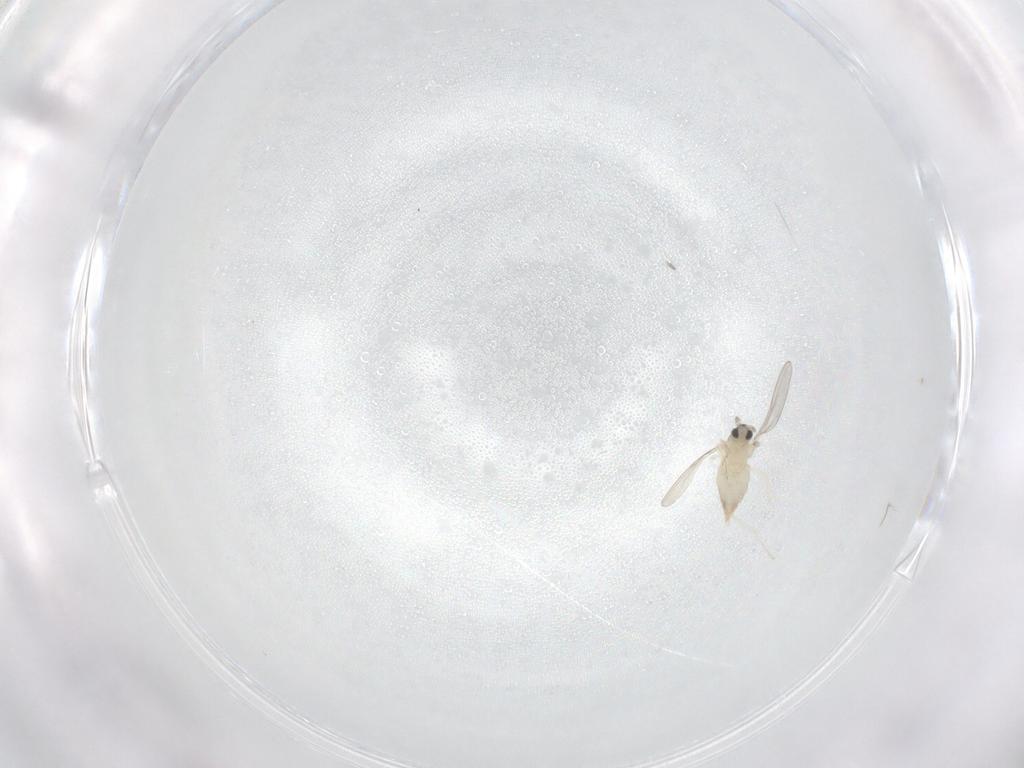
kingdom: Animalia
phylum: Arthropoda
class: Insecta
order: Diptera
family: Cecidomyiidae
